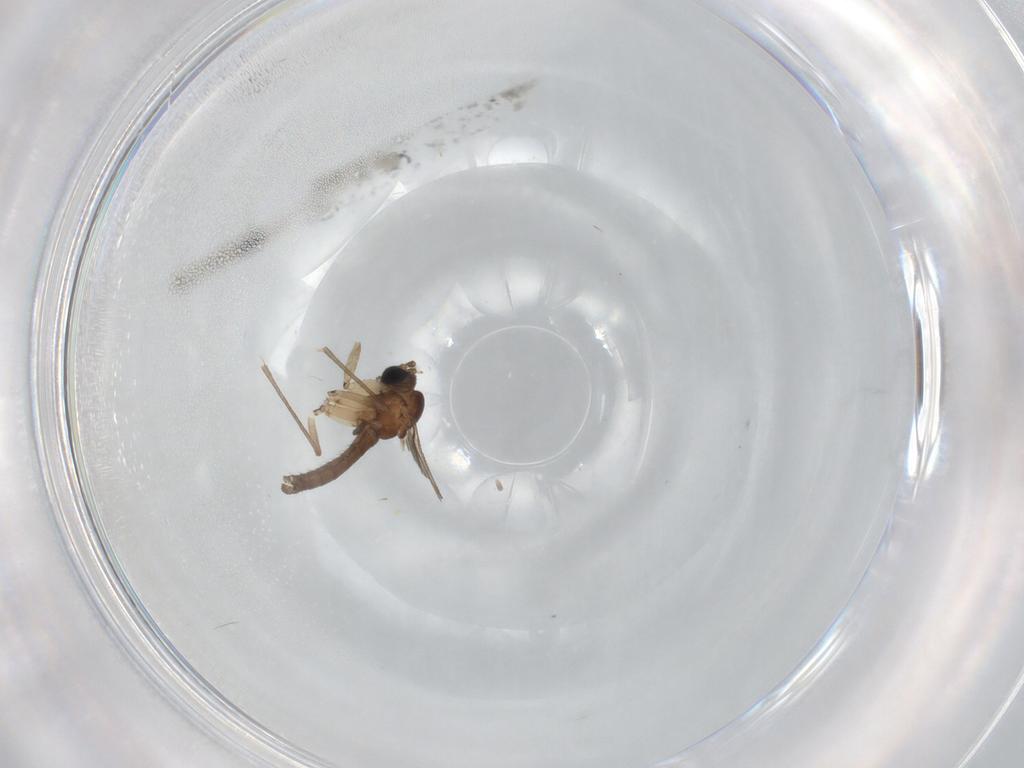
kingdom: Animalia
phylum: Arthropoda
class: Insecta
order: Diptera
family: Sciaridae
